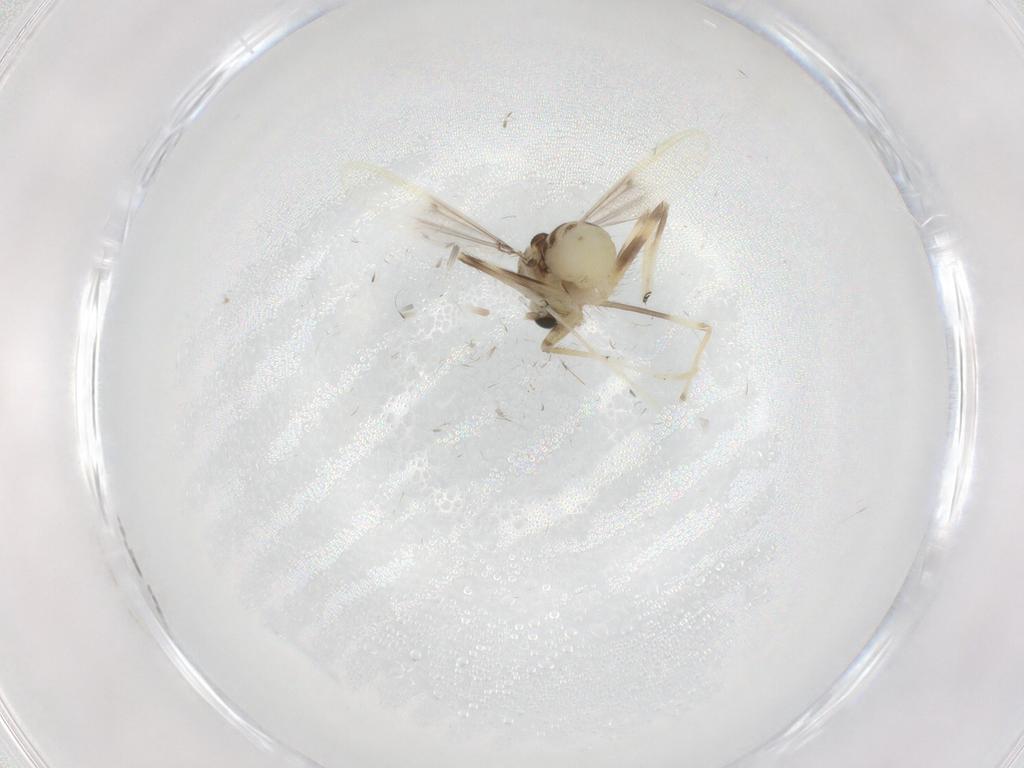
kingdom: Animalia
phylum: Arthropoda
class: Insecta
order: Diptera
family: Chironomidae
